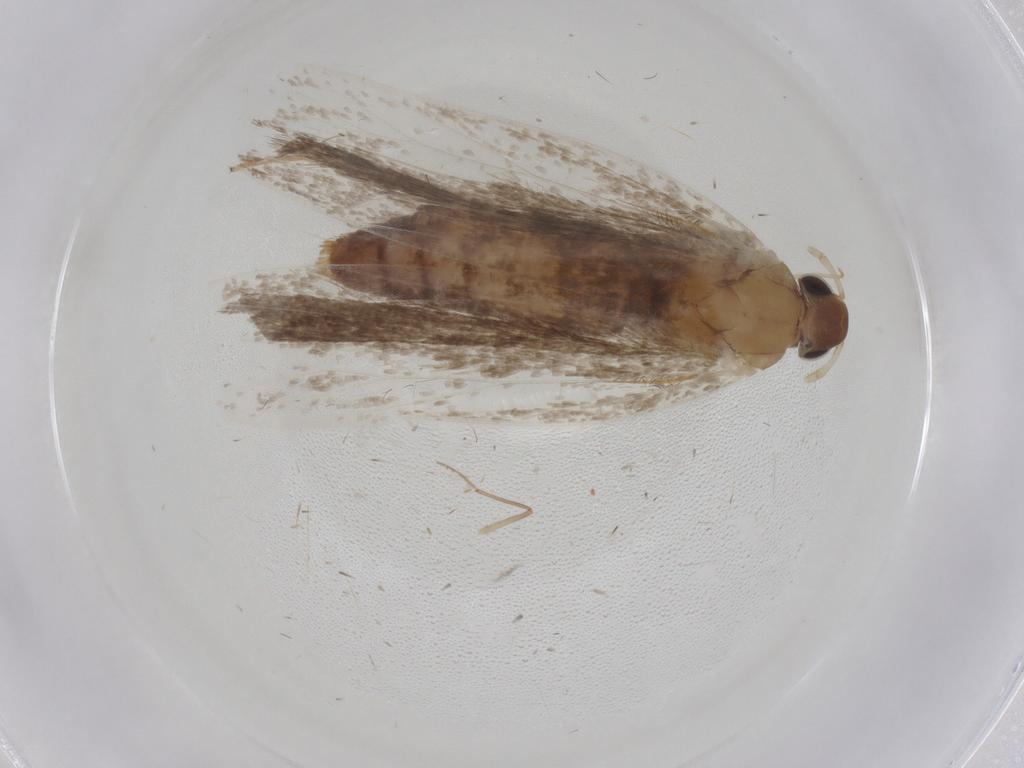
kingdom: Animalia
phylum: Arthropoda
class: Insecta
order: Lepidoptera
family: Gelechiidae
